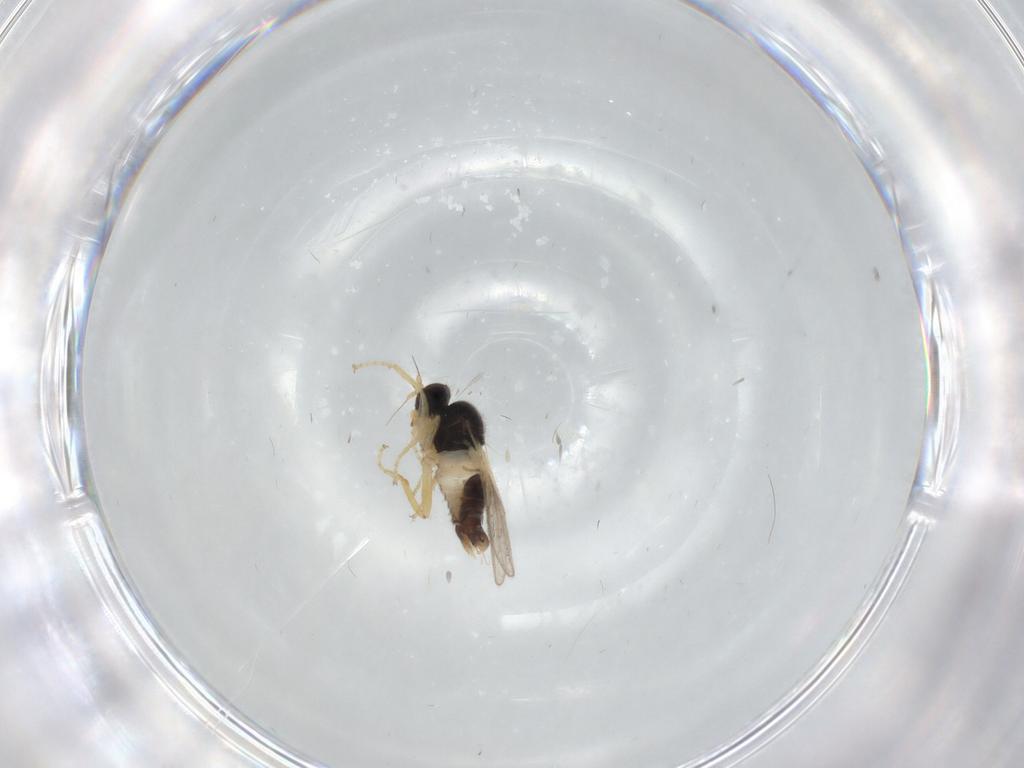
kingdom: Animalia
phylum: Arthropoda
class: Insecta
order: Diptera
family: Hybotidae
